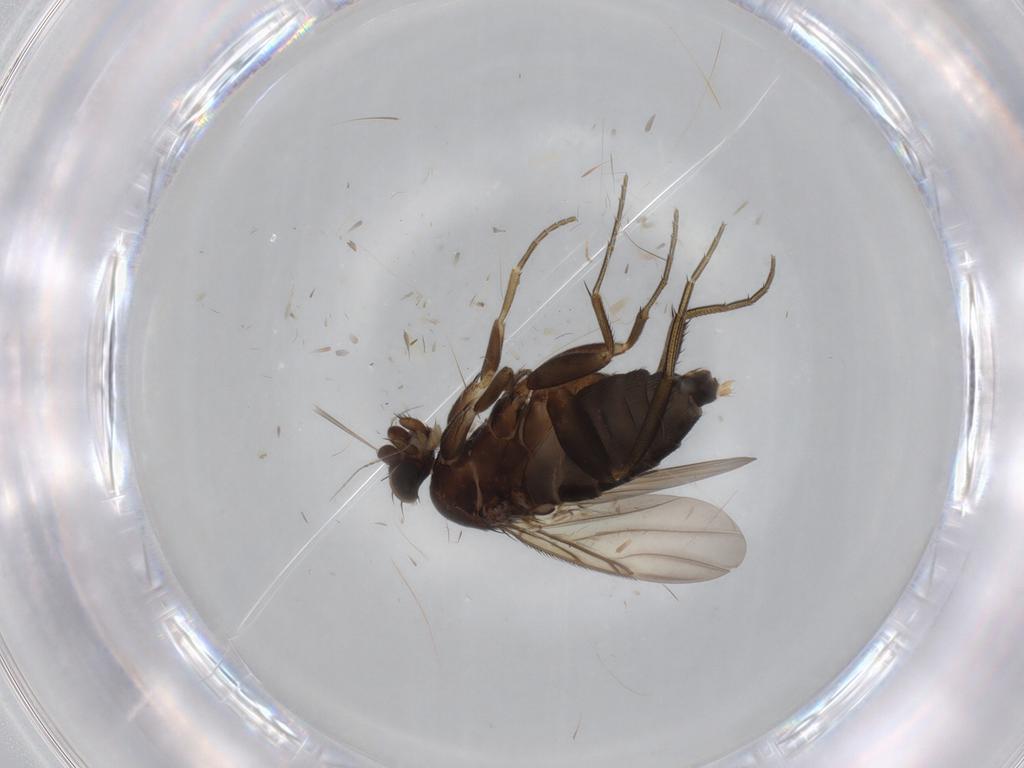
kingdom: Animalia
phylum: Arthropoda
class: Insecta
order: Diptera
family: Phoridae
